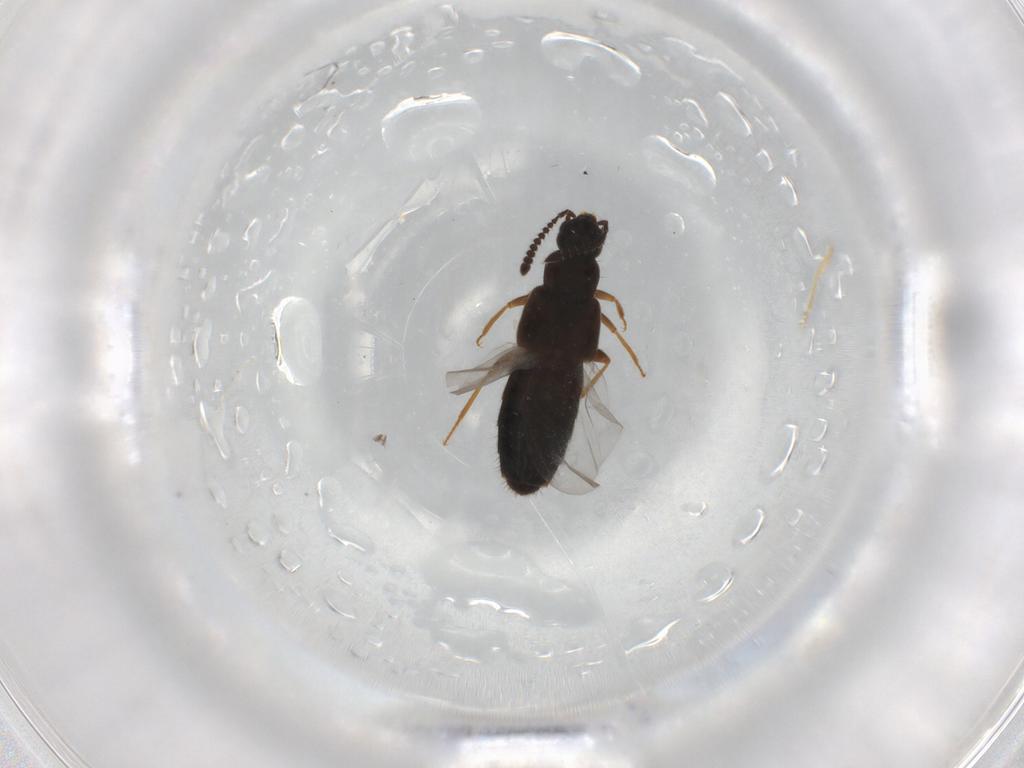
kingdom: Animalia
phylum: Arthropoda
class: Insecta
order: Coleoptera
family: Staphylinidae
